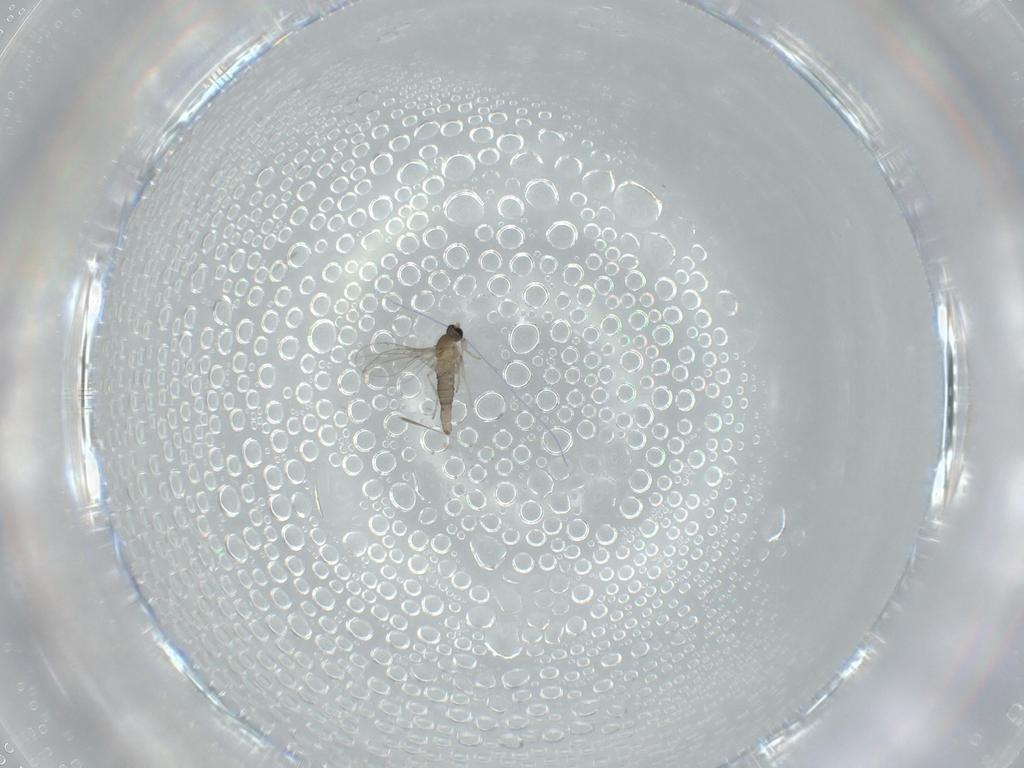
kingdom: Animalia
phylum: Arthropoda
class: Insecta
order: Diptera
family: Cecidomyiidae
